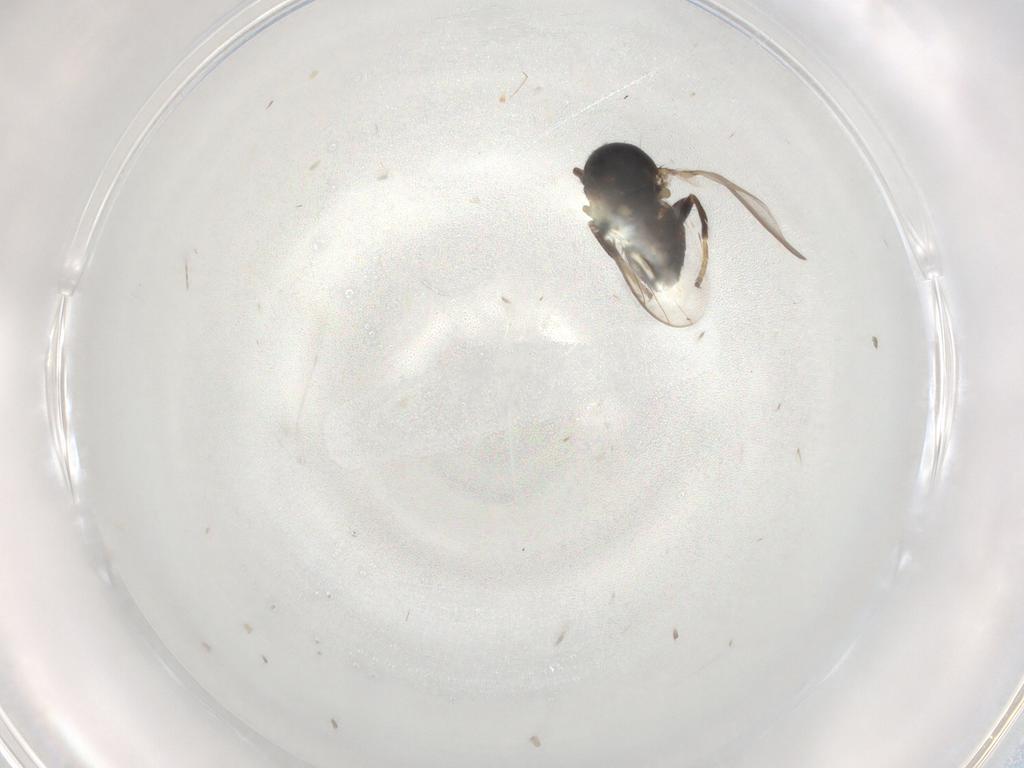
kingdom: Animalia
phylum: Arthropoda
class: Insecta
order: Diptera
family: Chloropidae
